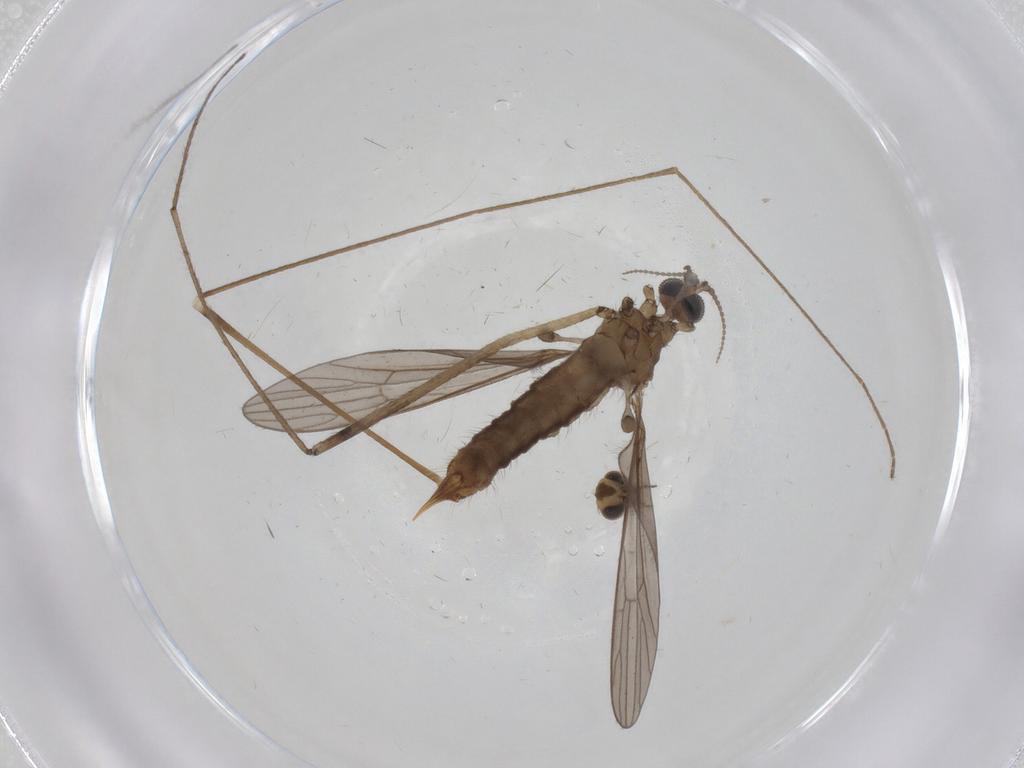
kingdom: Animalia
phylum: Arthropoda
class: Insecta
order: Diptera
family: Limoniidae
